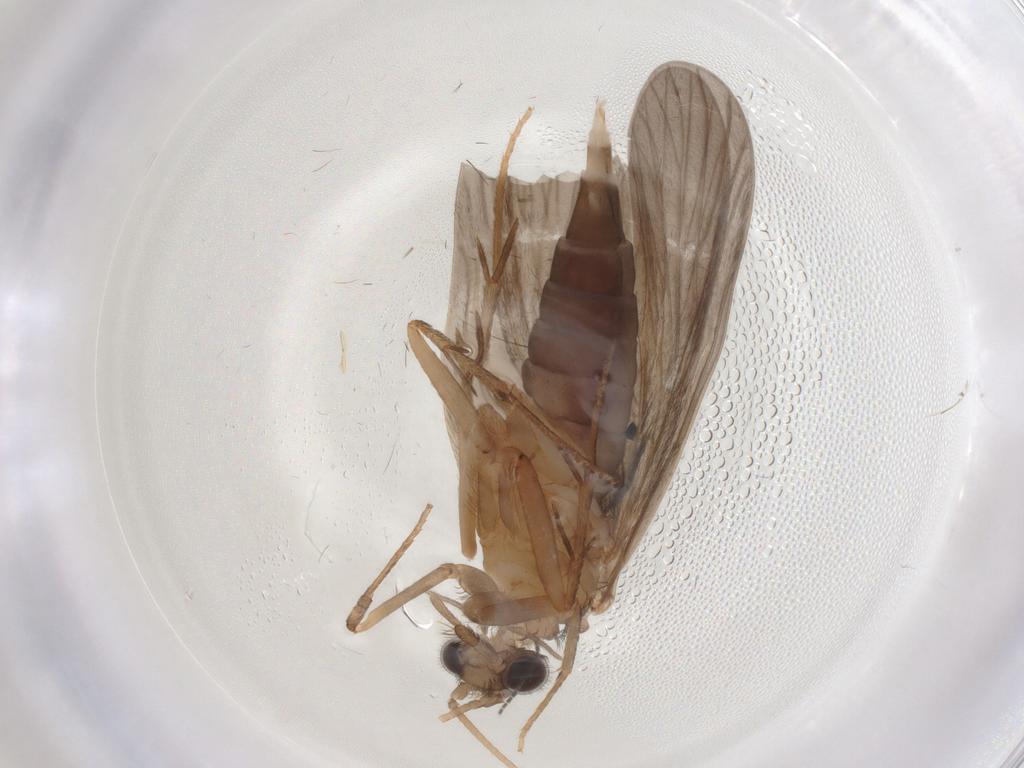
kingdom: Animalia
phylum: Arthropoda
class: Insecta
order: Trichoptera
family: Philopotamidae
